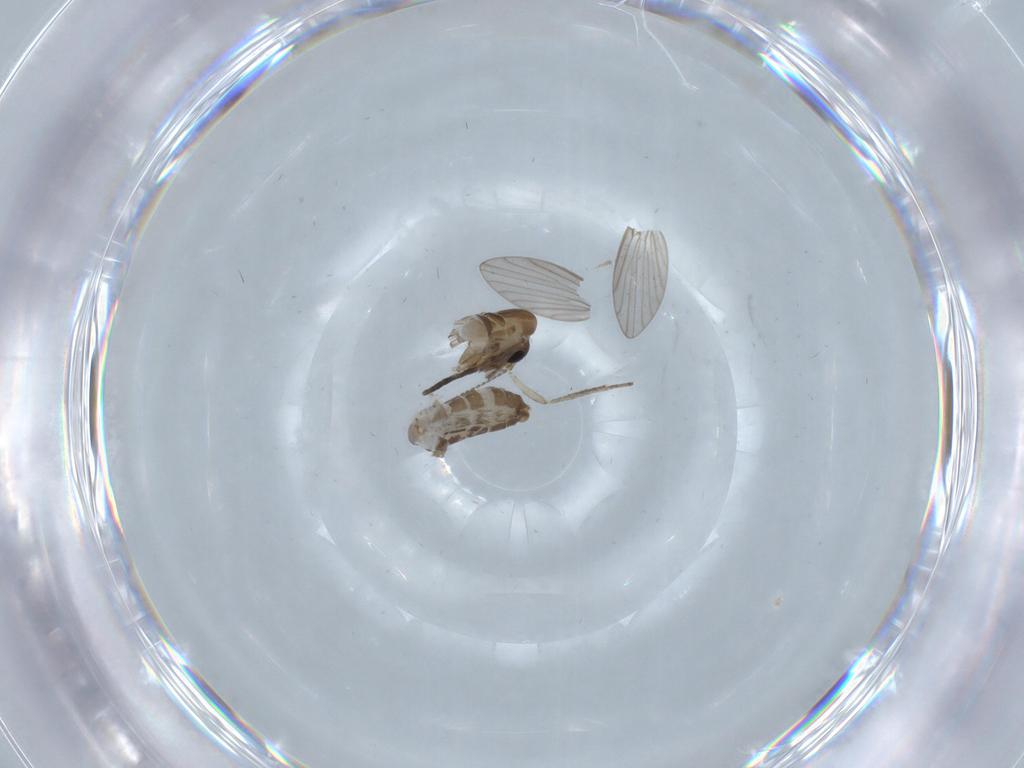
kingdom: Animalia
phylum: Arthropoda
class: Insecta
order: Diptera
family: Psychodidae
